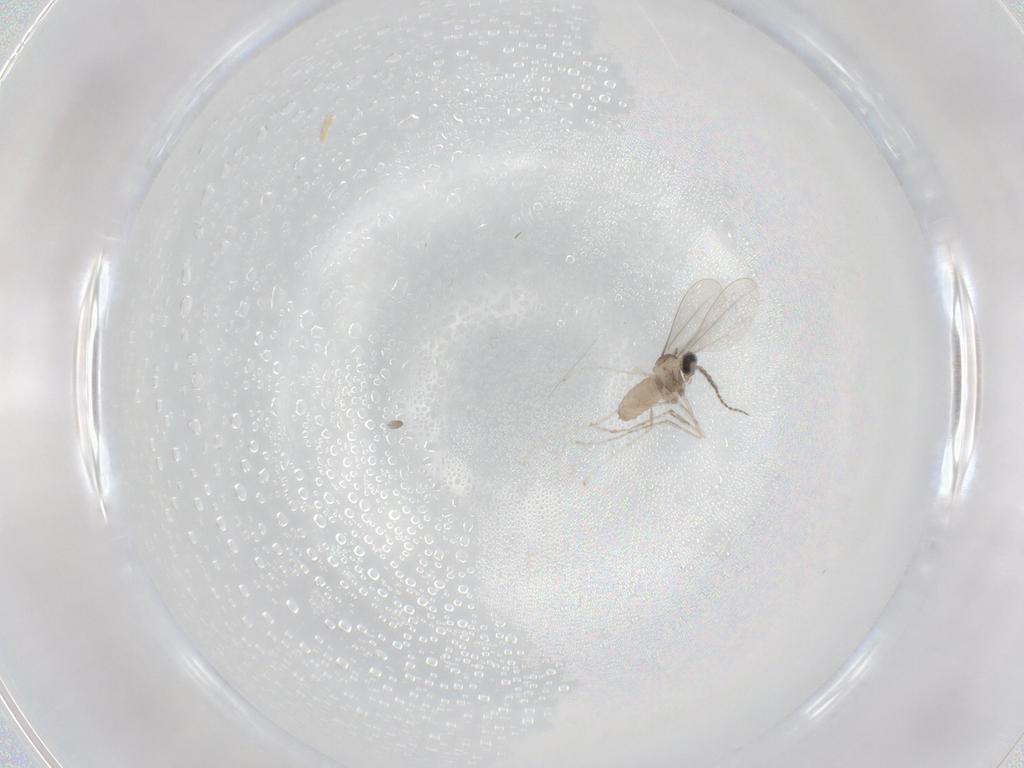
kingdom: Animalia
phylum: Arthropoda
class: Insecta
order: Diptera
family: Cecidomyiidae
